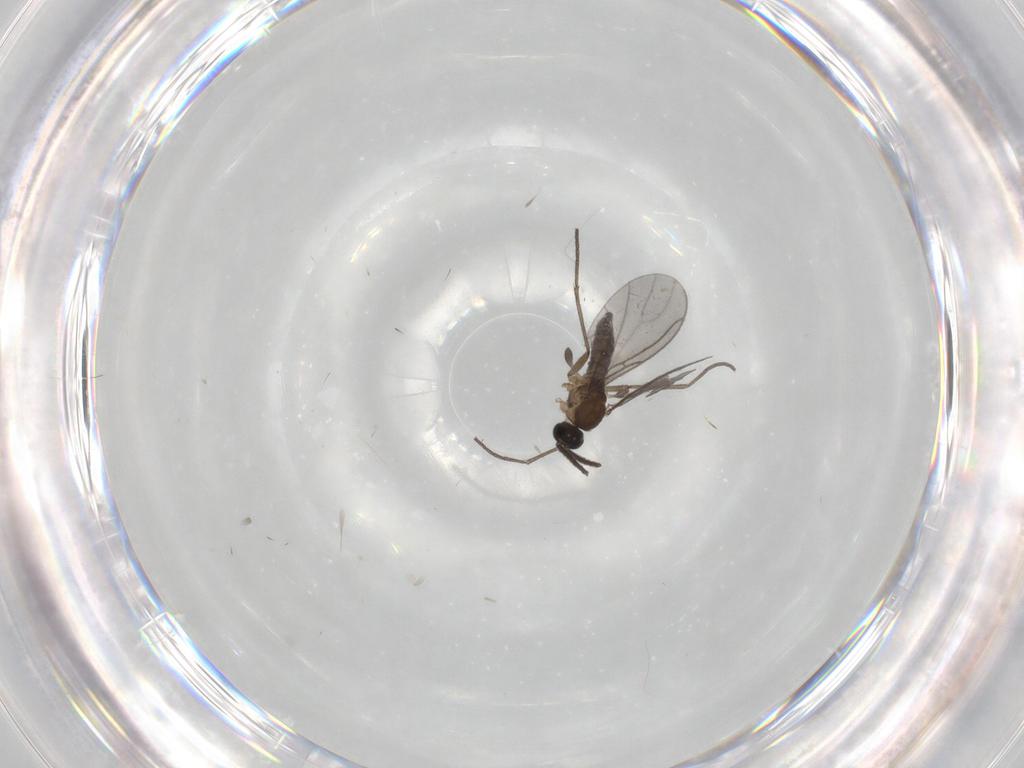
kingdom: Animalia
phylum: Arthropoda
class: Insecta
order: Diptera
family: Sciaridae
